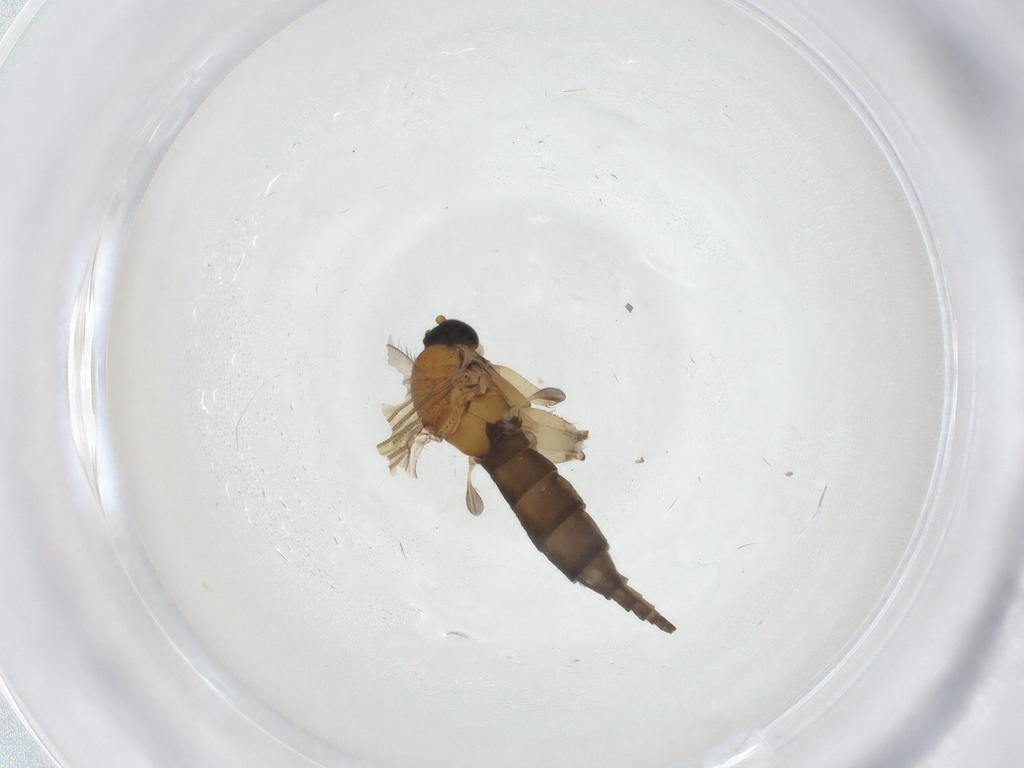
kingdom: Animalia
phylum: Arthropoda
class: Insecta
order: Diptera
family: Sciaridae
